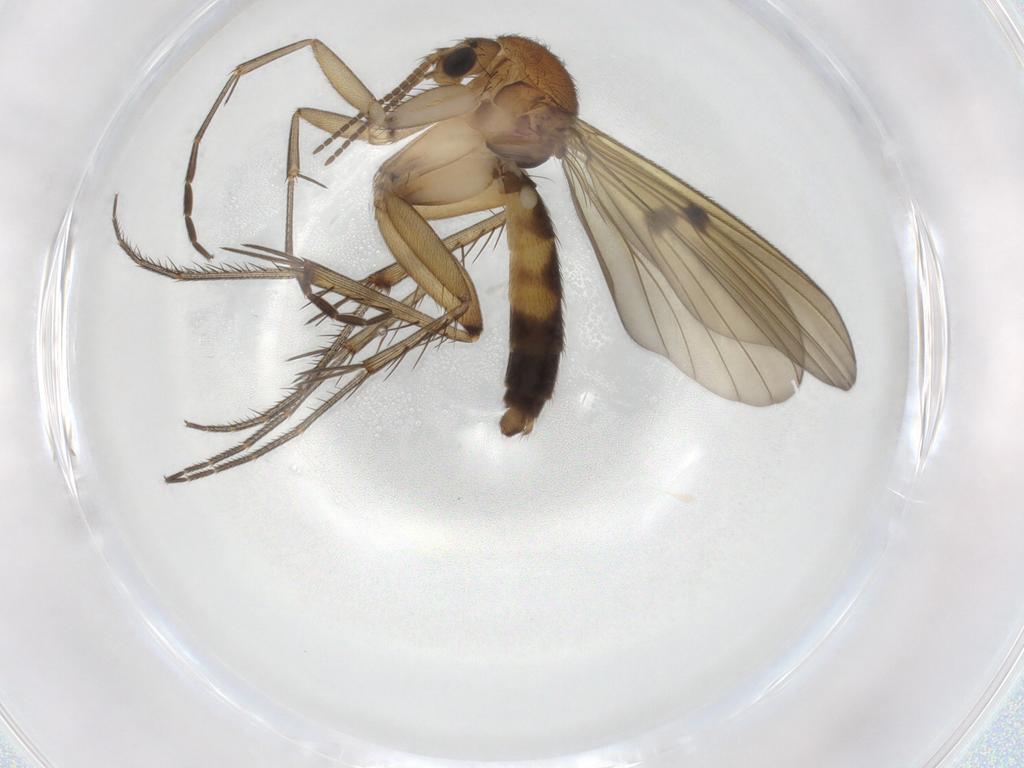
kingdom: Animalia
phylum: Arthropoda
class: Insecta
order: Diptera
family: Mycetophilidae
